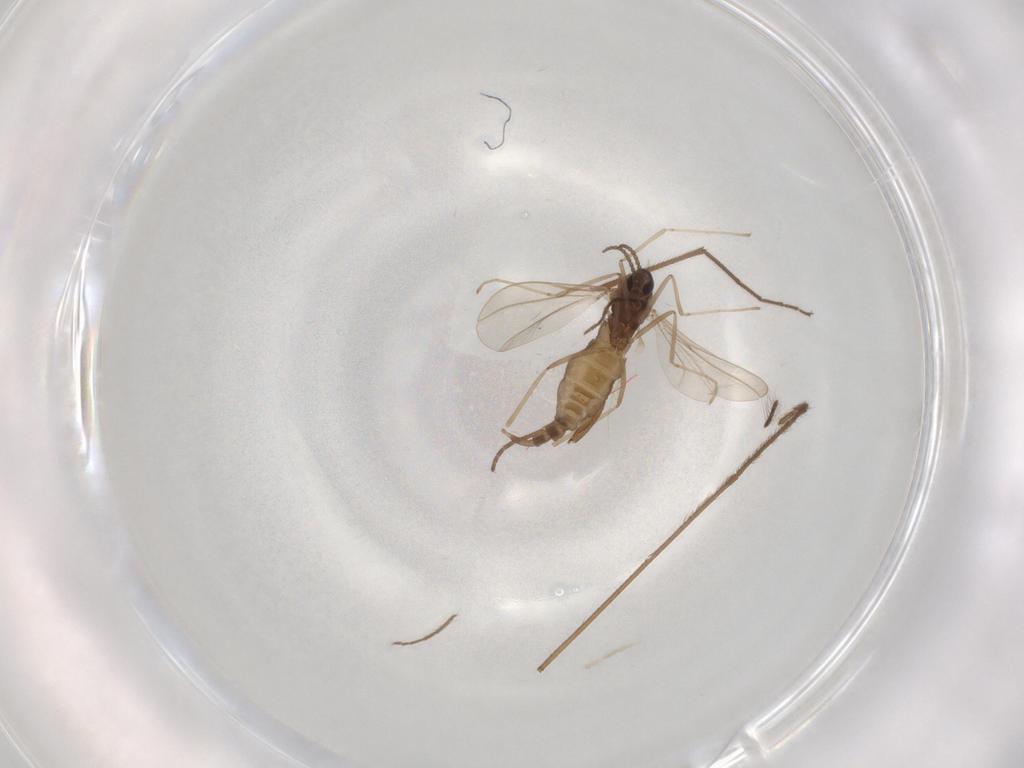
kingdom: Animalia
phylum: Arthropoda
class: Insecta
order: Diptera
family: Cecidomyiidae
